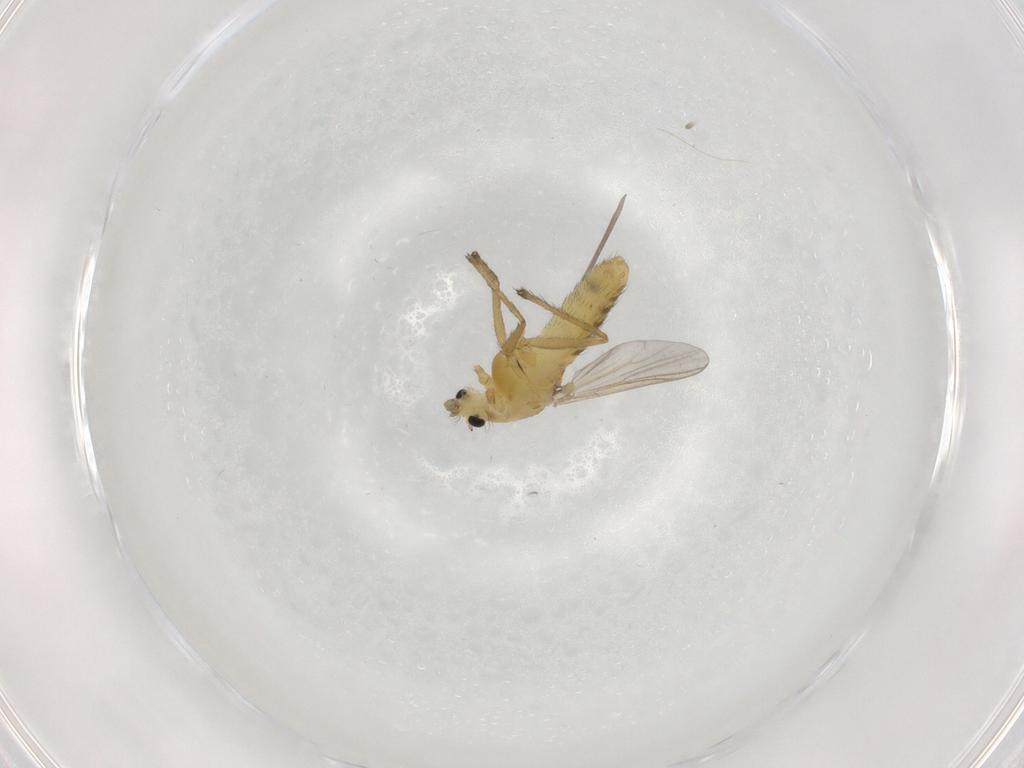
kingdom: Animalia
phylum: Arthropoda
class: Insecta
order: Diptera
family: Chironomidae
